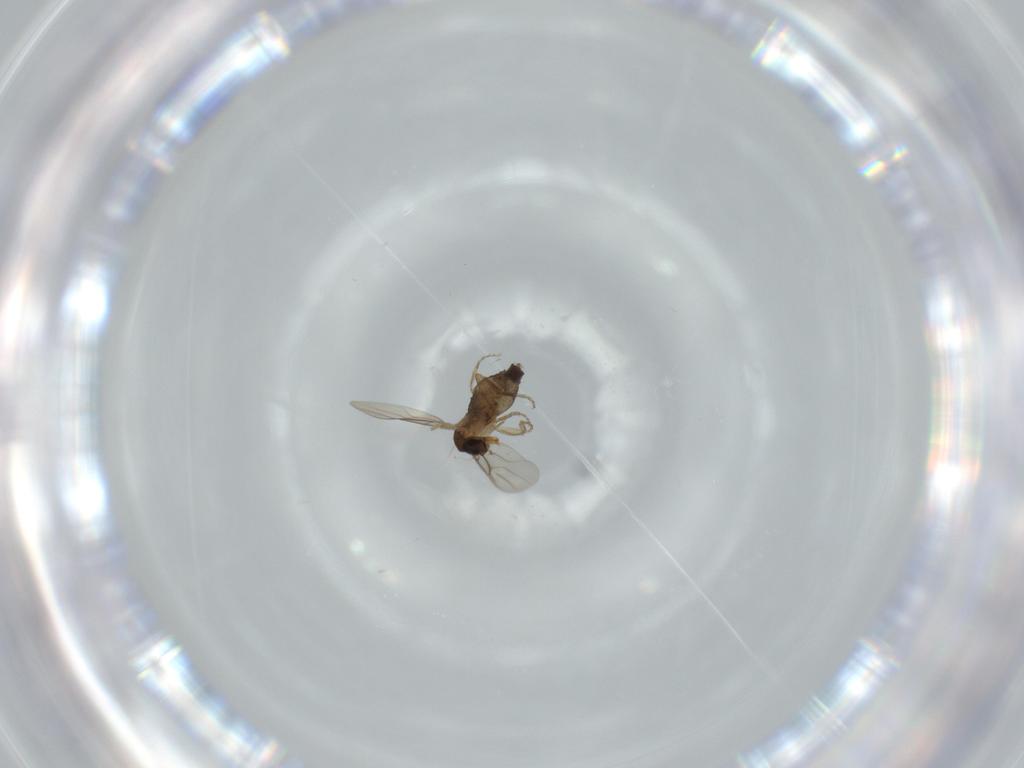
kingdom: Animalia
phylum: Arthropoda
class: Insecta
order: Diptera
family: Phoridae
